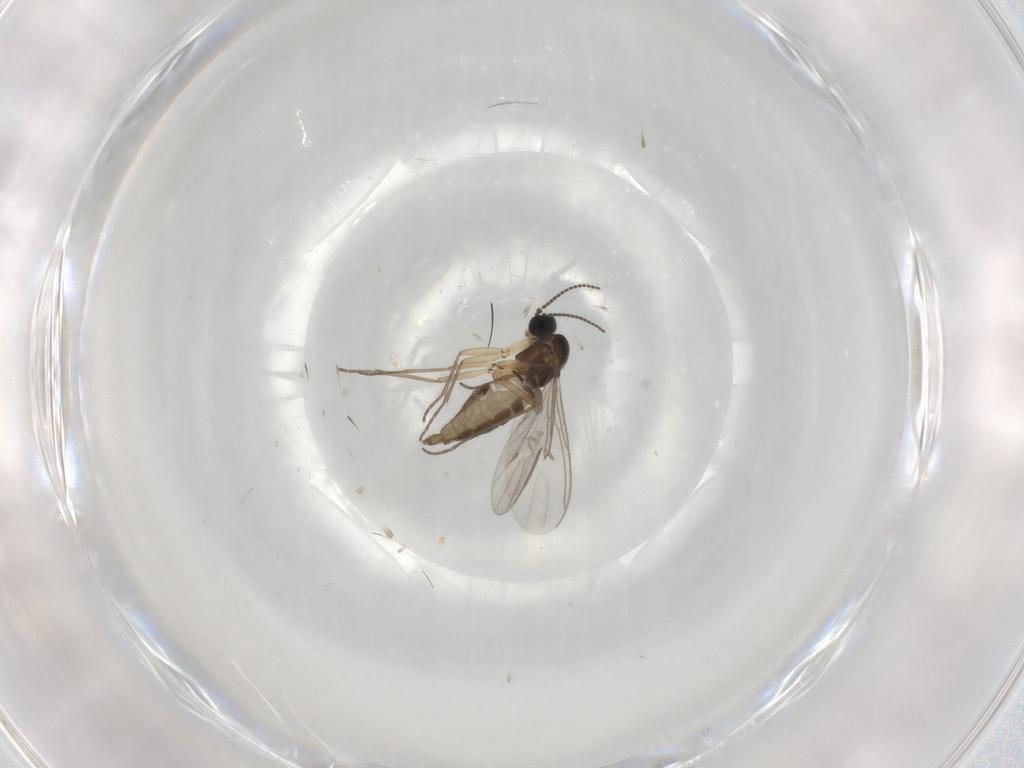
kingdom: Animalia
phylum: Arthropoda
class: Insecta
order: Diptera
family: Sciaridae
